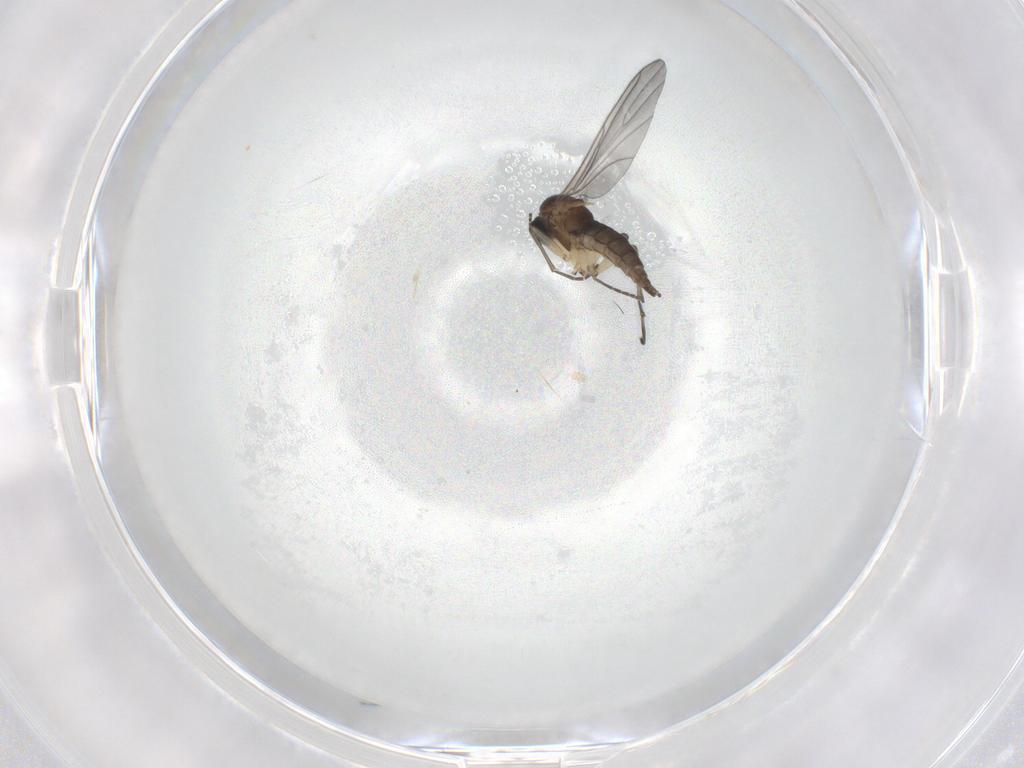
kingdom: Animalia
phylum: Arthropoda
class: Insecta
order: Diptera
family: Sciaridae
